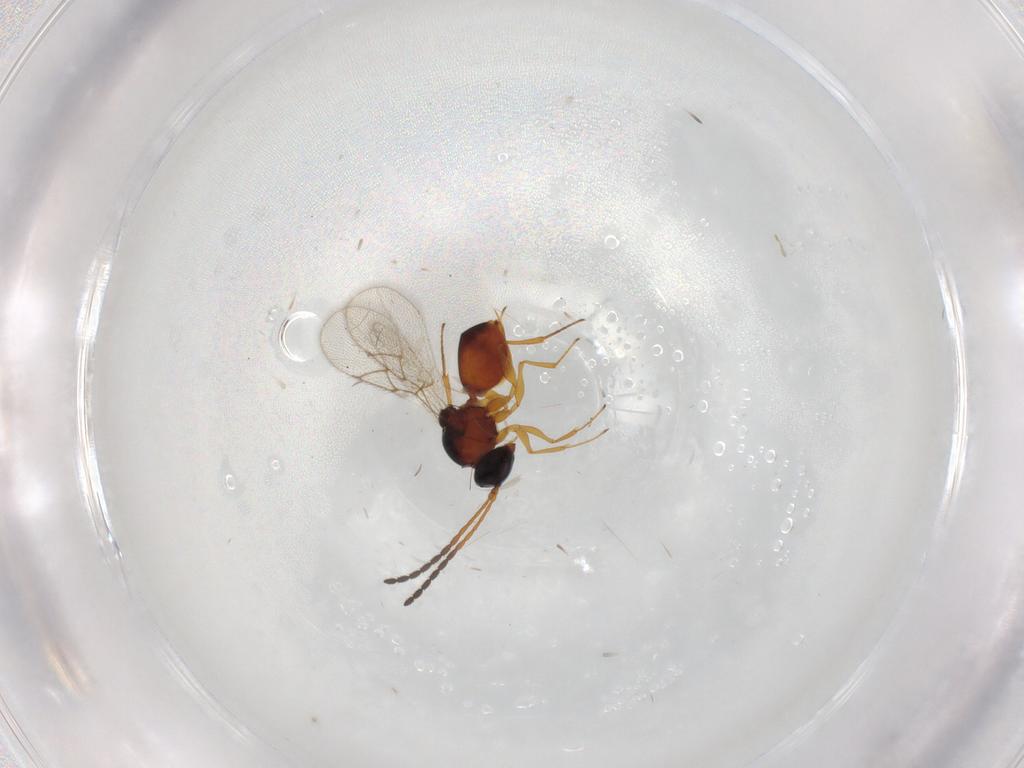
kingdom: Animalia
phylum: Arthropoda
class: Insecta
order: Hymenoptera
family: Figitidae
